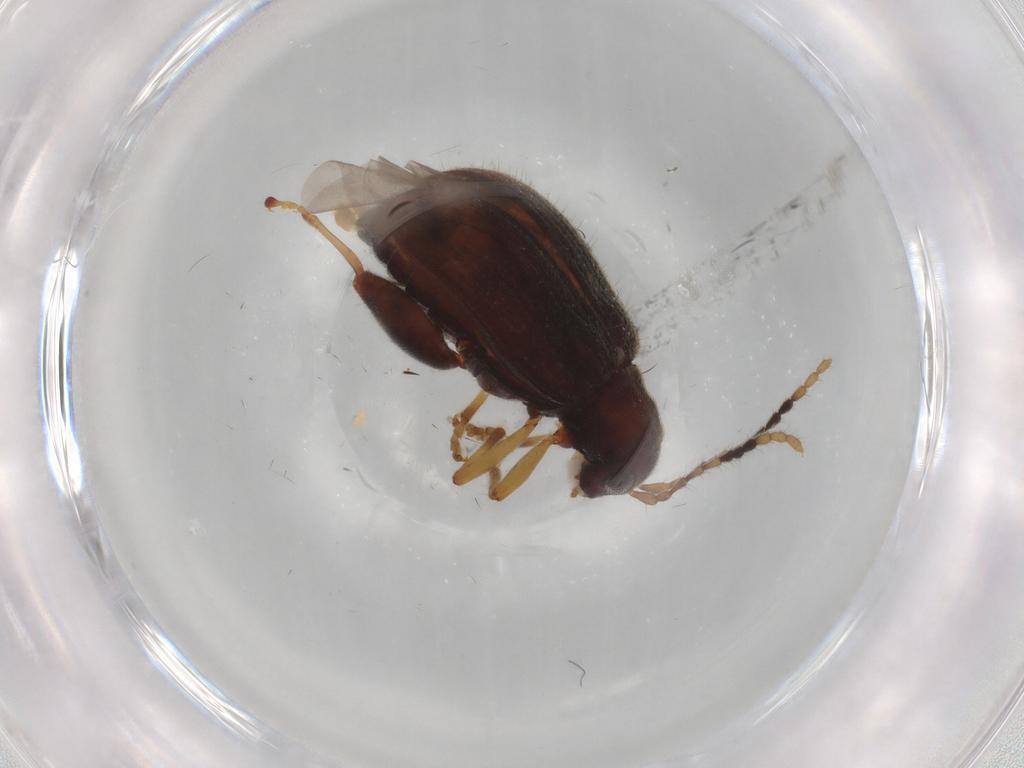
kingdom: Animalia
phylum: Arthropoda
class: Insecta
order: Coleoptera
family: Chrysomelidae
